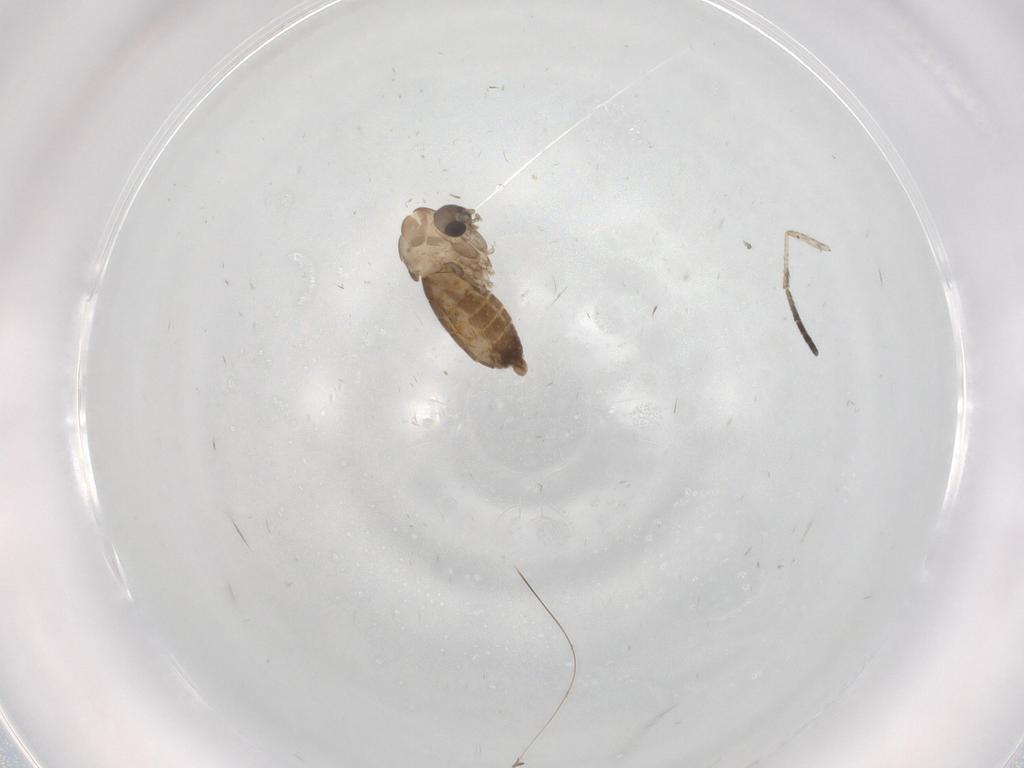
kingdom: Animalia
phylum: Arthropoda
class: Insecta
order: Diptera
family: Psychodidae
